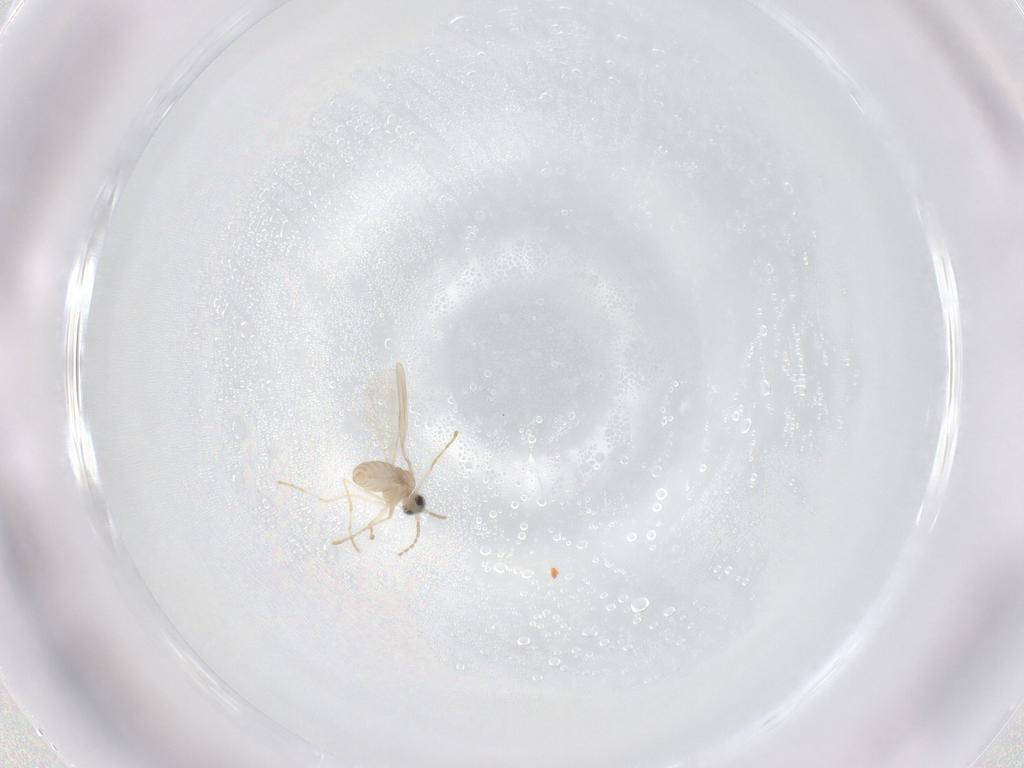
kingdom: Animalia
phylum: Arthropoda
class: Insecta
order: Diptera
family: Cecidomyiidae
